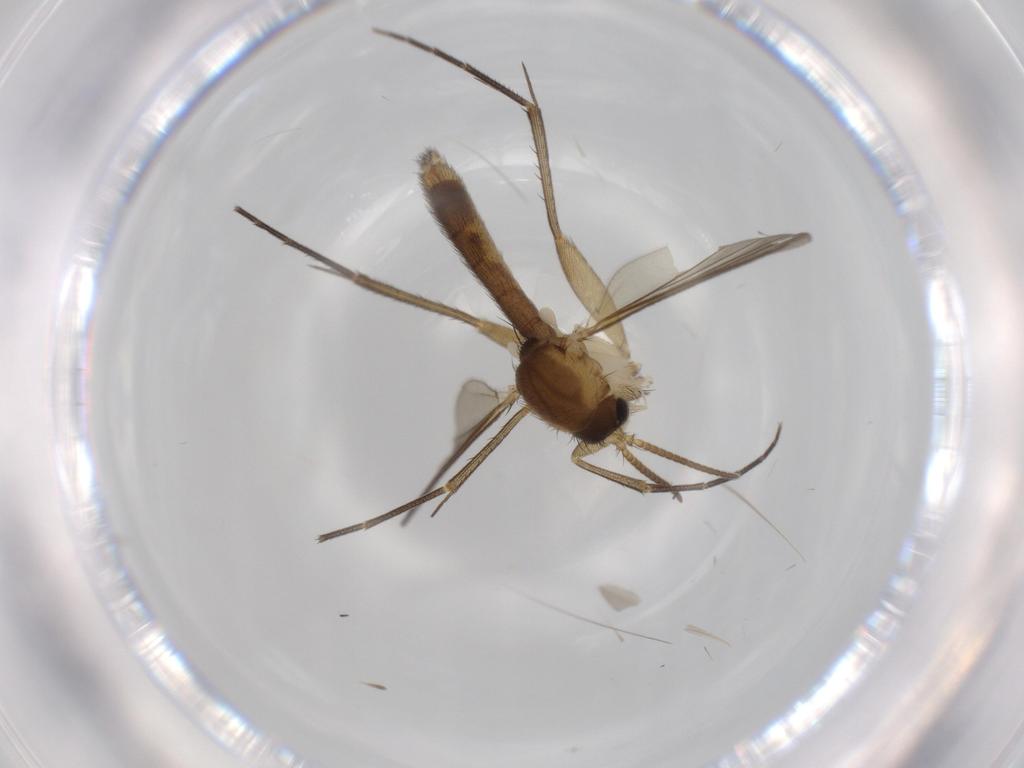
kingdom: Animalia
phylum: Arthropoda
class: Insecta
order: Diptera
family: Mycetophilidae
